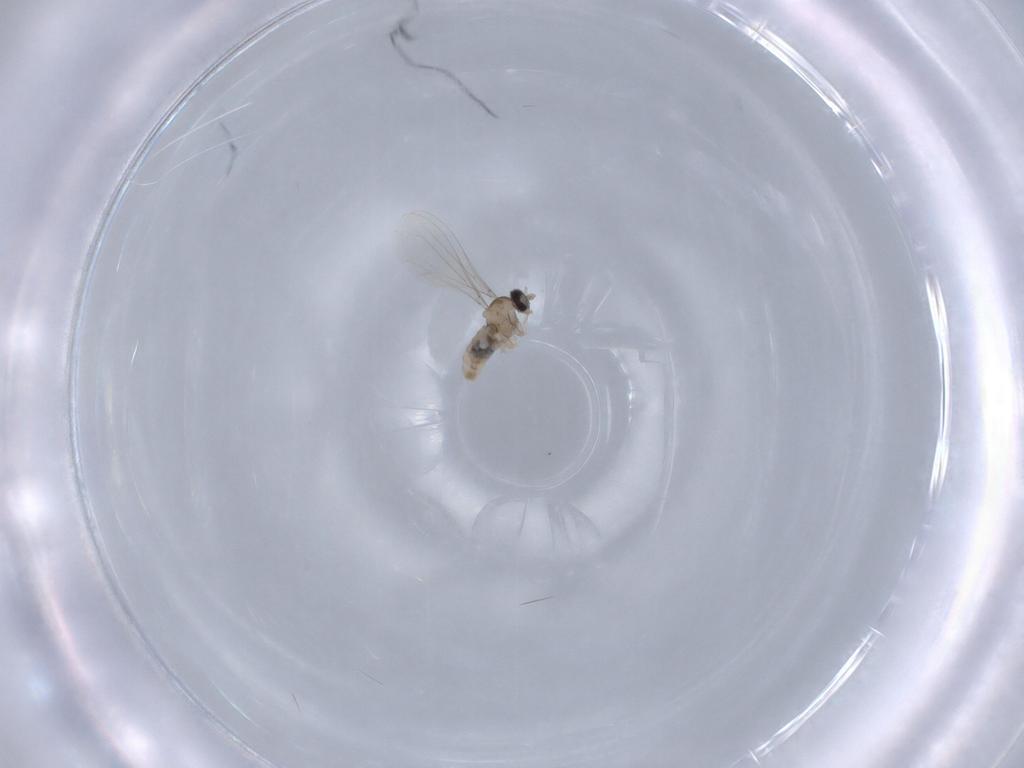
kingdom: Animalia
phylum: Arthropoda
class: Insecta
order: Diptera
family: Cecidomyiidae
